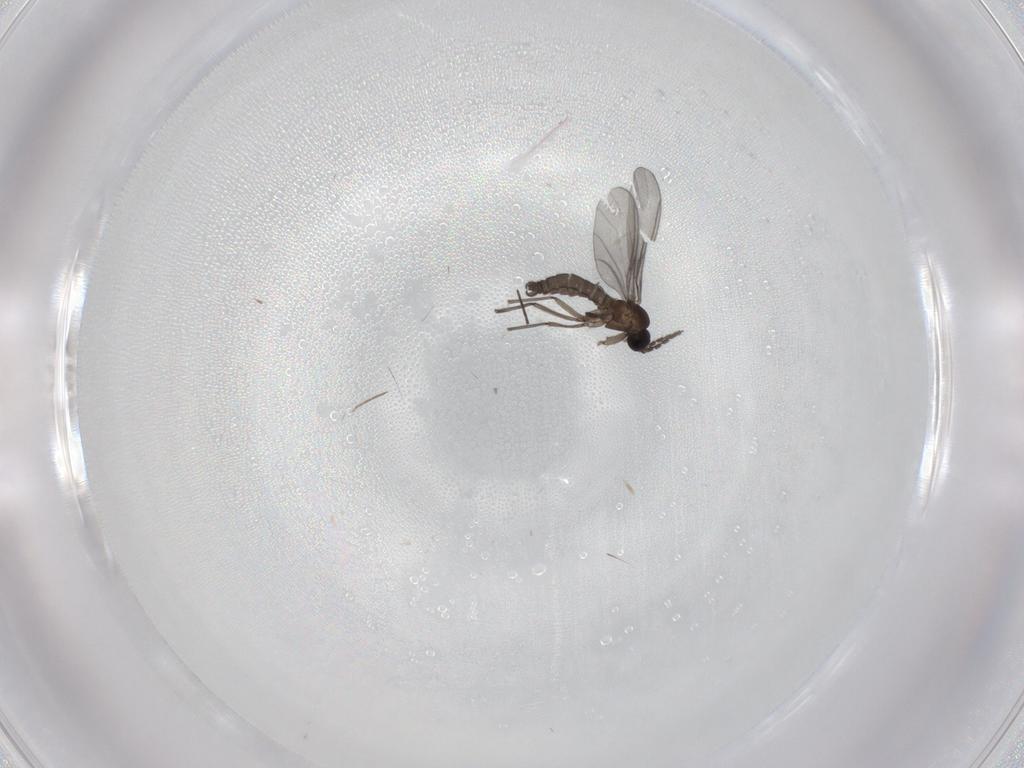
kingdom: Animalia
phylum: Arthropoda
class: Insecta
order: Diptera
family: Sciaridae
